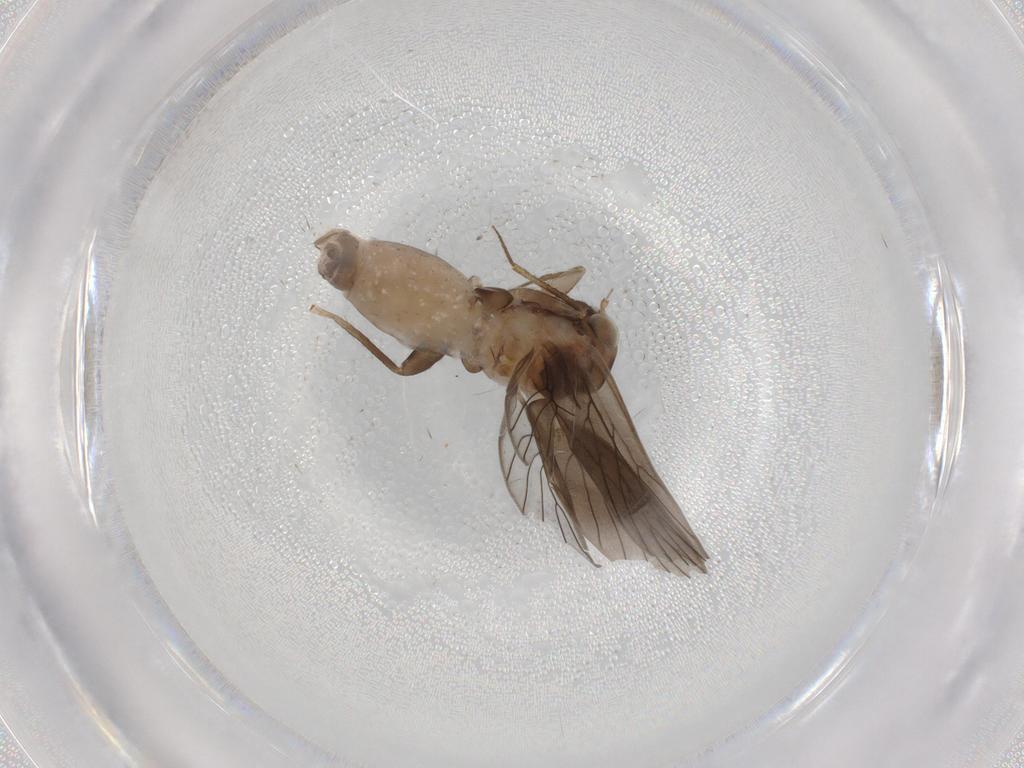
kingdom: Animalia
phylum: Arthropoda
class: Insecta
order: Psocodea
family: Lepidopsocidae
